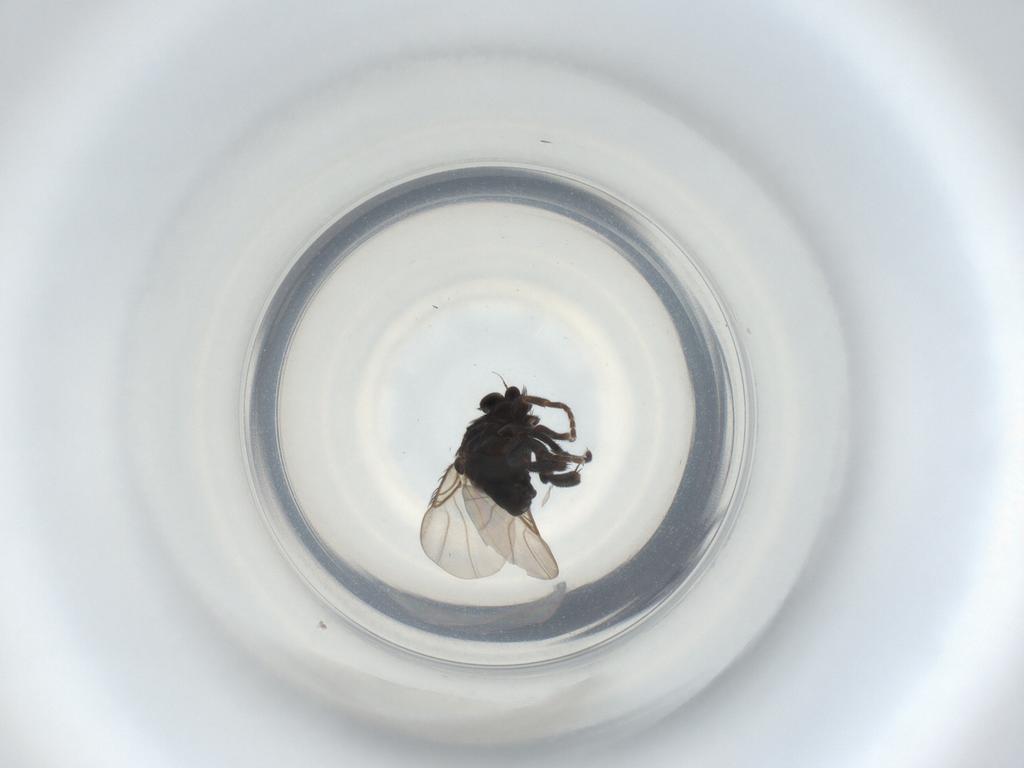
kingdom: Animalia
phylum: Arthropoda
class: Insecta
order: Diptera
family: Phoridae
